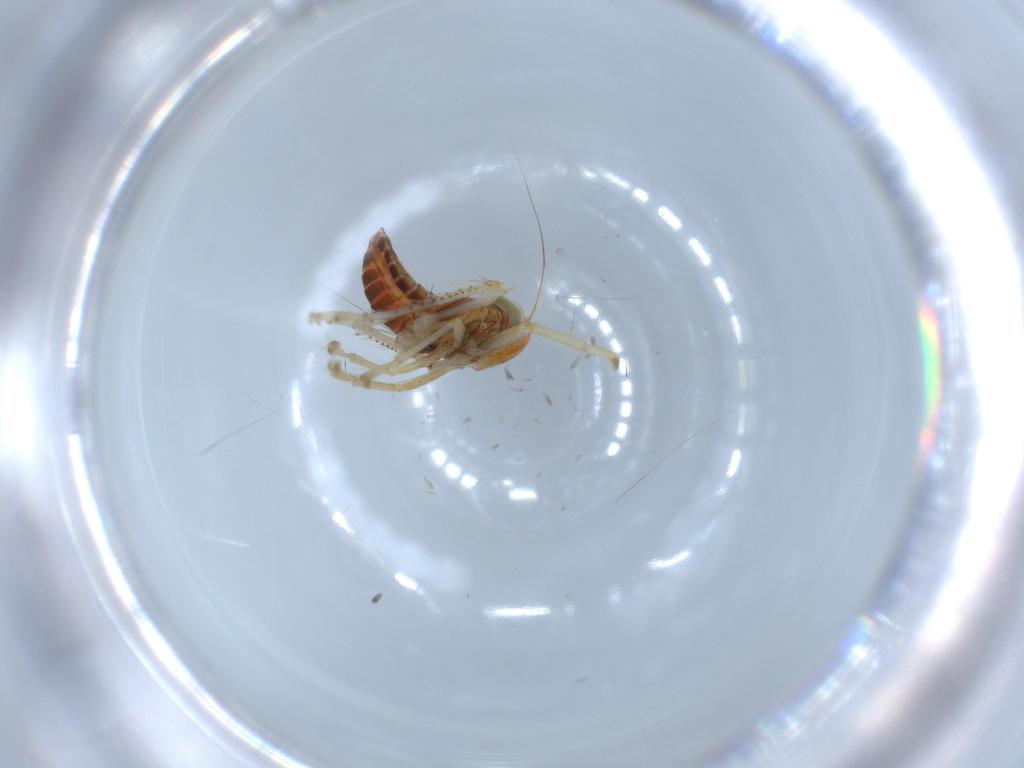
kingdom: Animalia
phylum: Arthropoda
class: Insecta
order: Hemiptera
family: Cicadellidae
